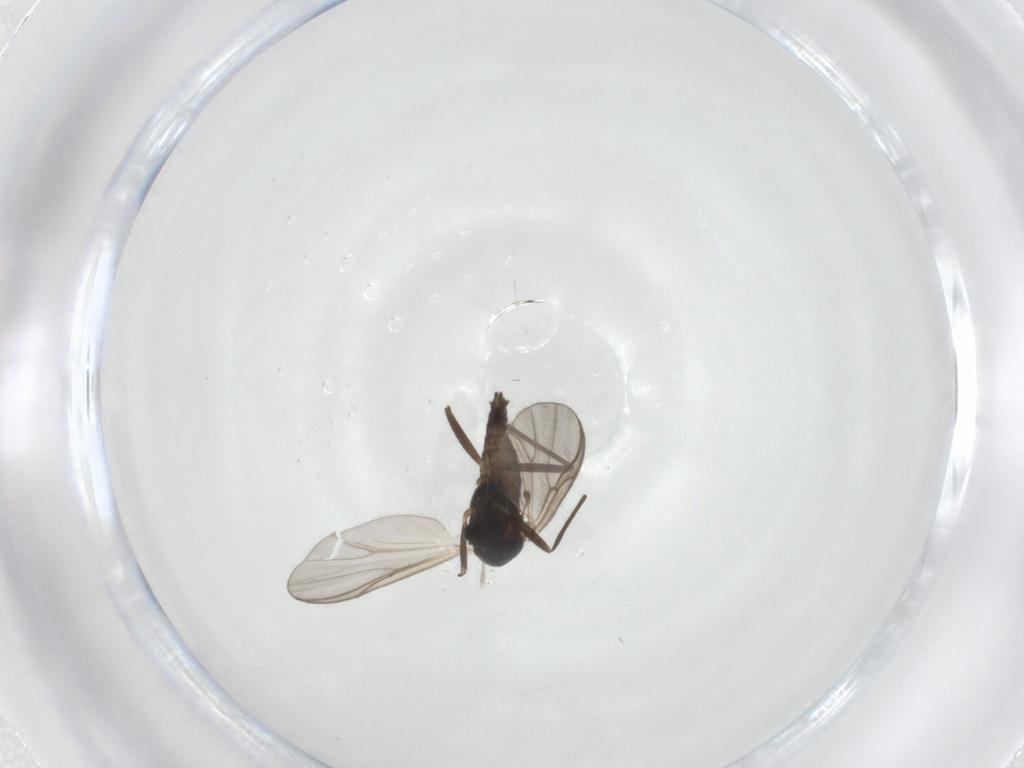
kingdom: Animalia
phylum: Arthropoda
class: Insecta
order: Diptera
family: Chironomidae
